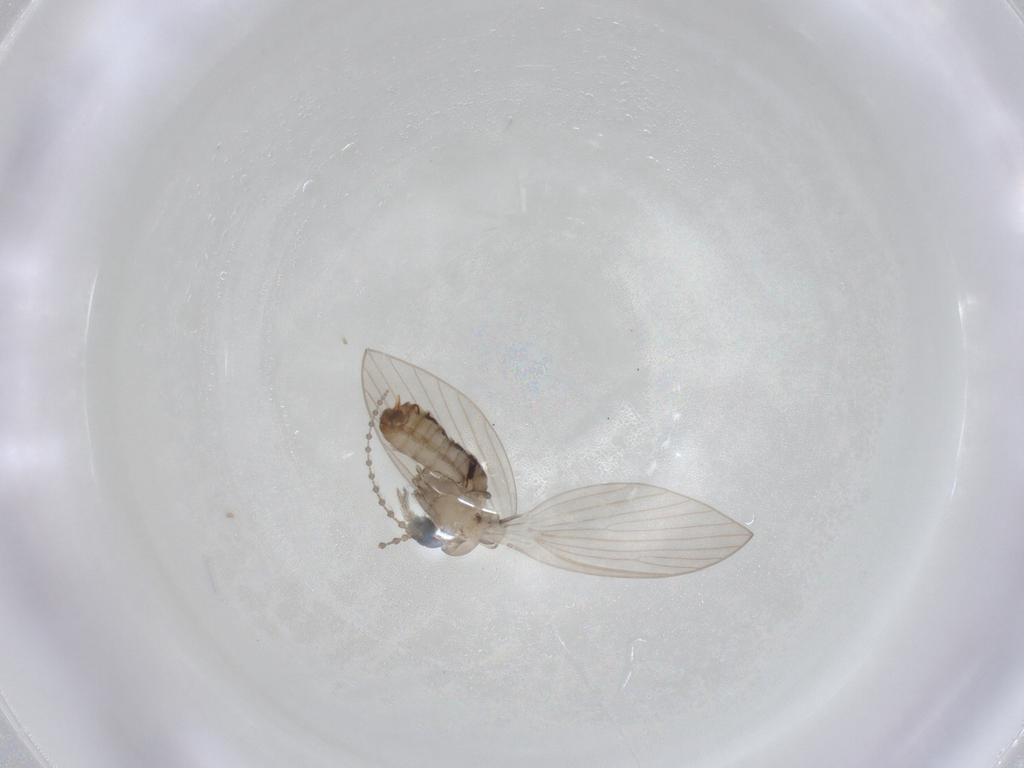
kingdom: Animalia
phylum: Arthropoda
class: Insecta
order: Diptera
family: Psychodidae
